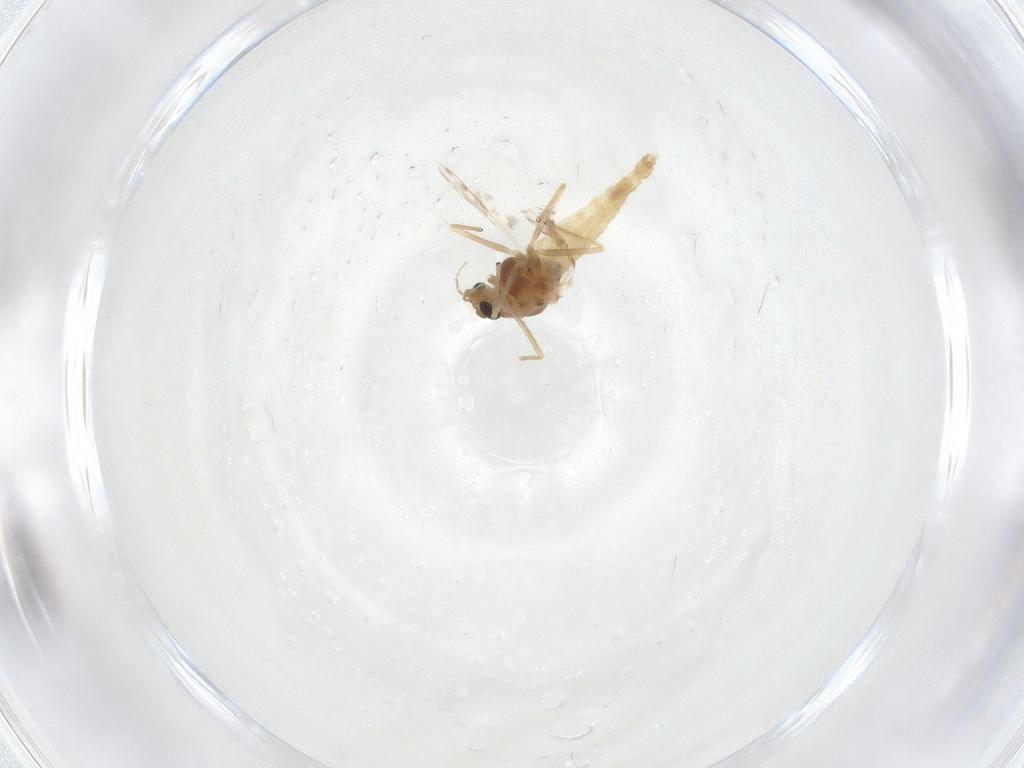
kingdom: Animalia
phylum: Arthropoda
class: Insecta
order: Diptera
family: Chironomidae
